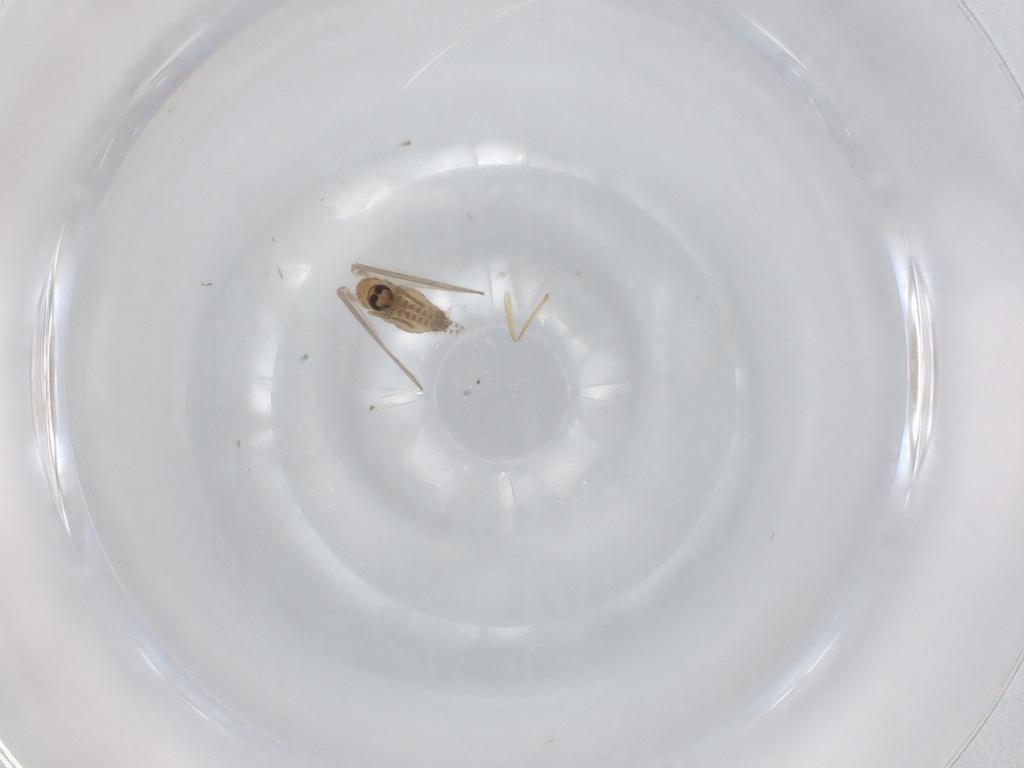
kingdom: Animalia
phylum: Arthropoda
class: Insecta
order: Diptera
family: Psychodidae
